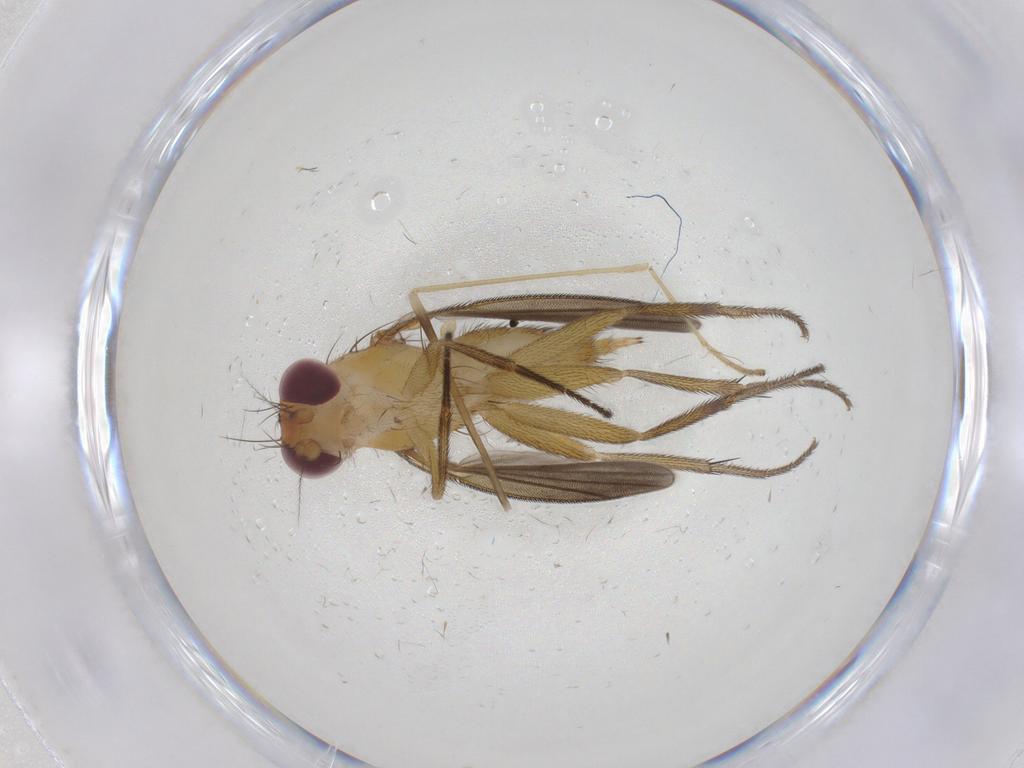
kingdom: Animalia
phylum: Arthropoda
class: Insecta
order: Diptera
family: Clusiidae
